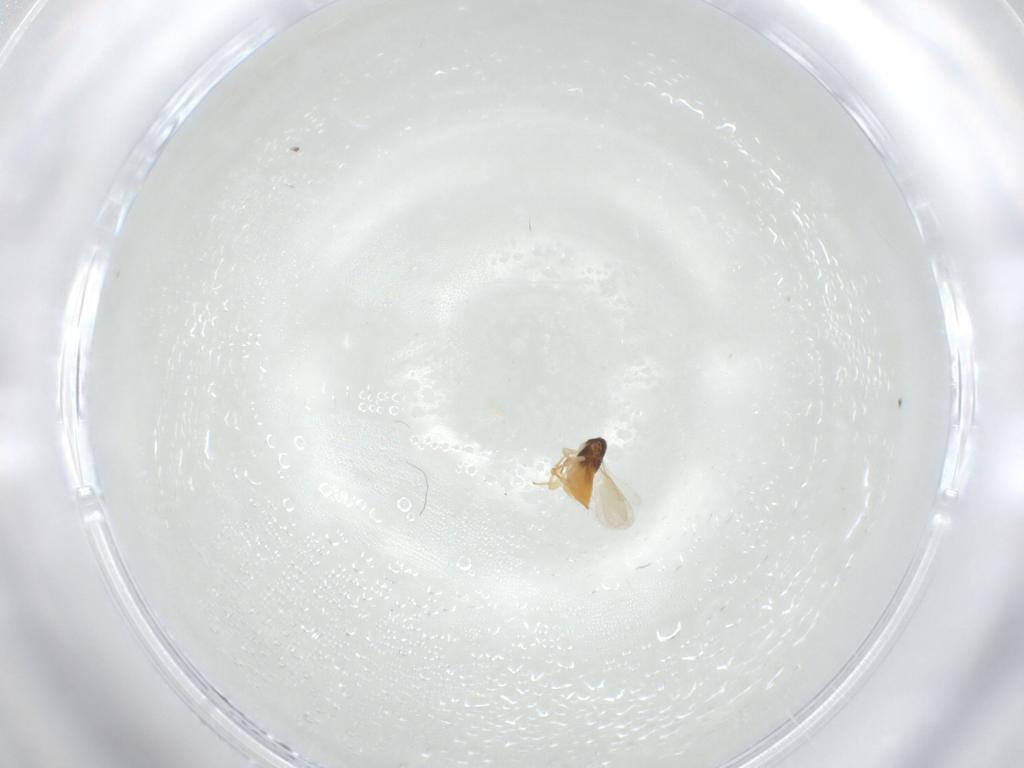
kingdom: Animalia
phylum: Arthropoda
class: Insecta
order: Hymenoptera
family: Aphelinidae
